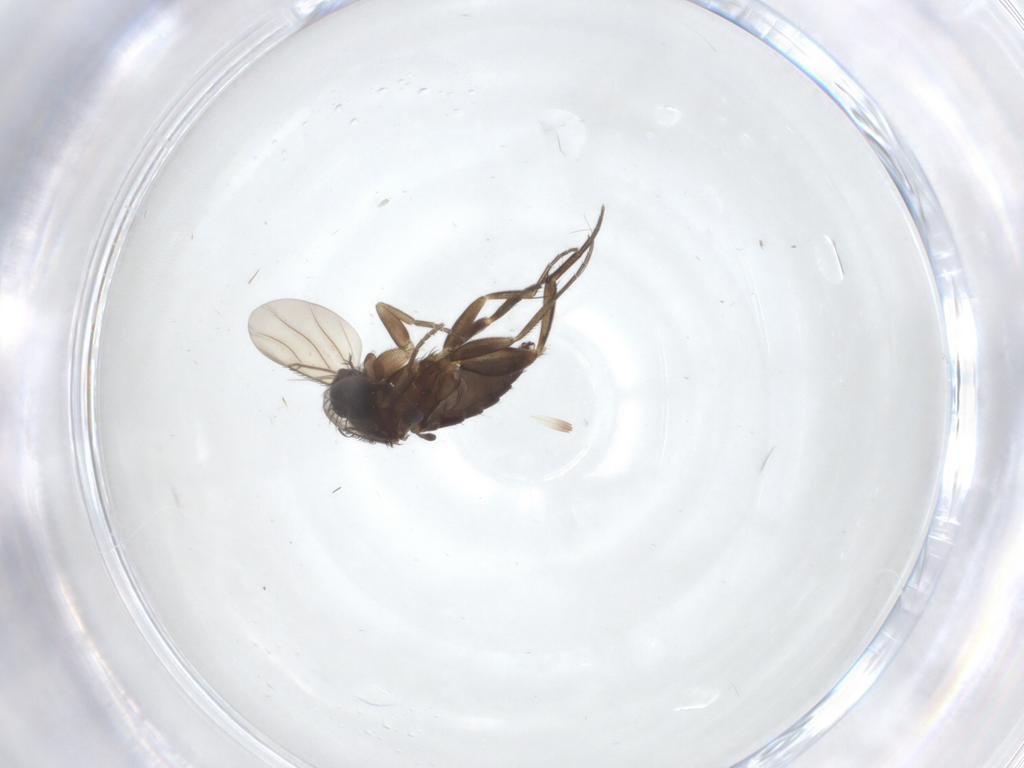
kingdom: Animalia
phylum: Arthropoda
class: Insecta
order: Diptera
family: Phoridae
